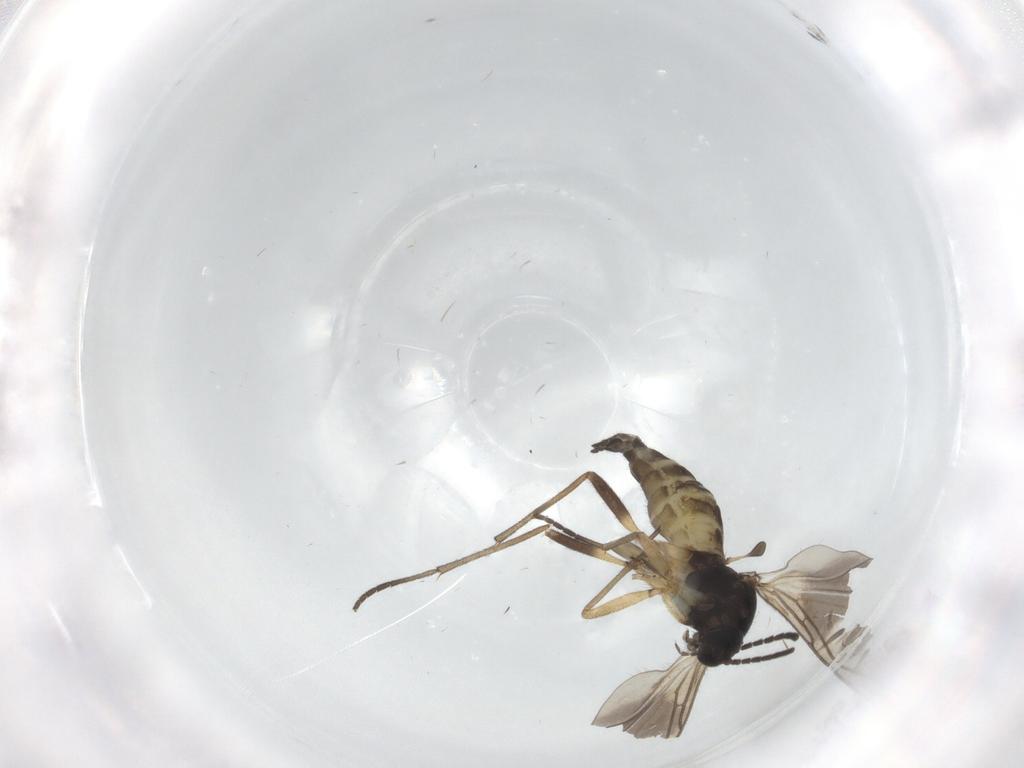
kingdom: Animalia
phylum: Arthropoda
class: Insecta
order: Diptera
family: Sciaridae
